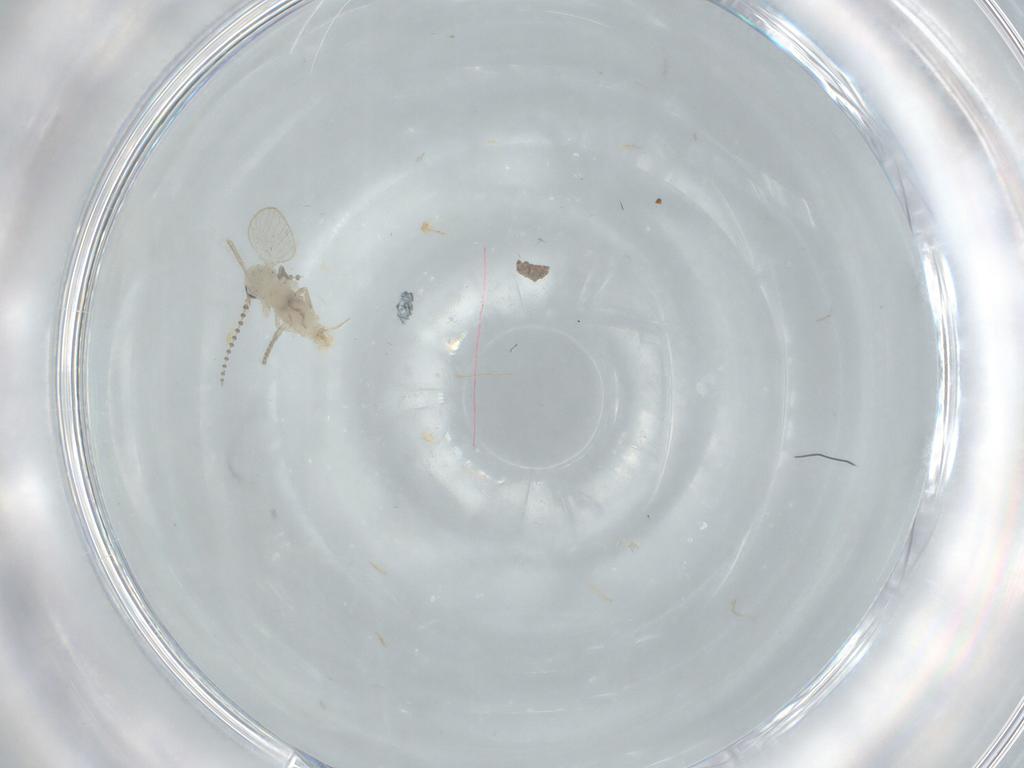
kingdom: Animalia
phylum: Arthropoda
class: Insecta
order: Diptera
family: Psychodidae
